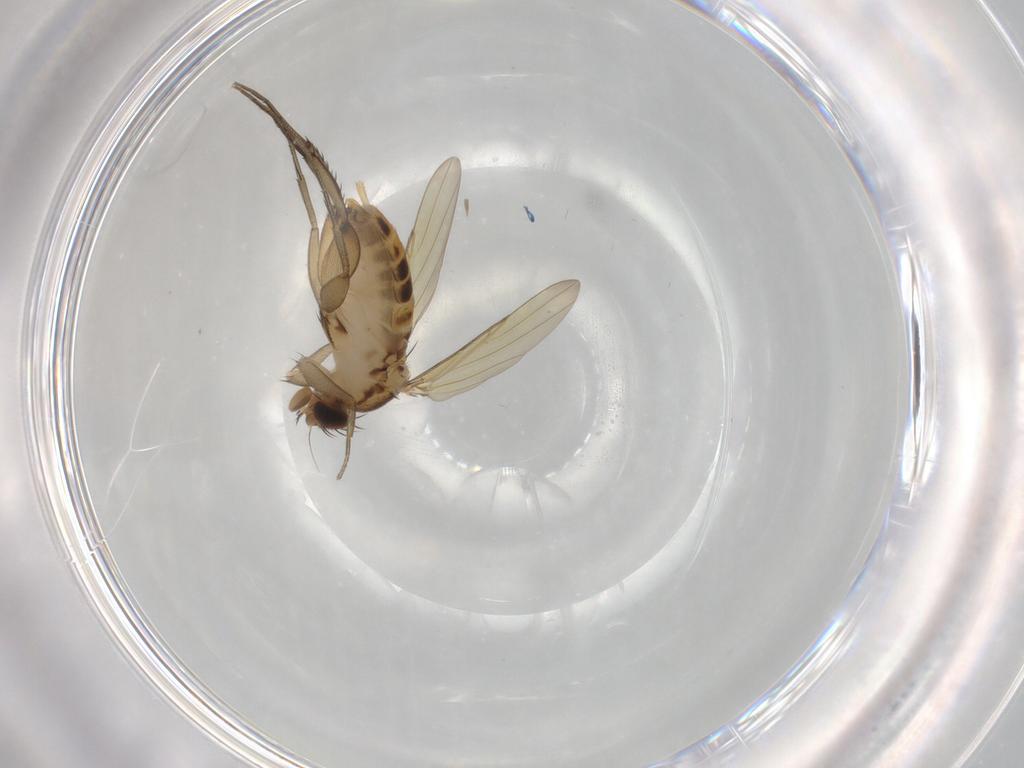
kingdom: Animalia
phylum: Arthropoda
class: Insecta
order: Diptera
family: Phoridae
